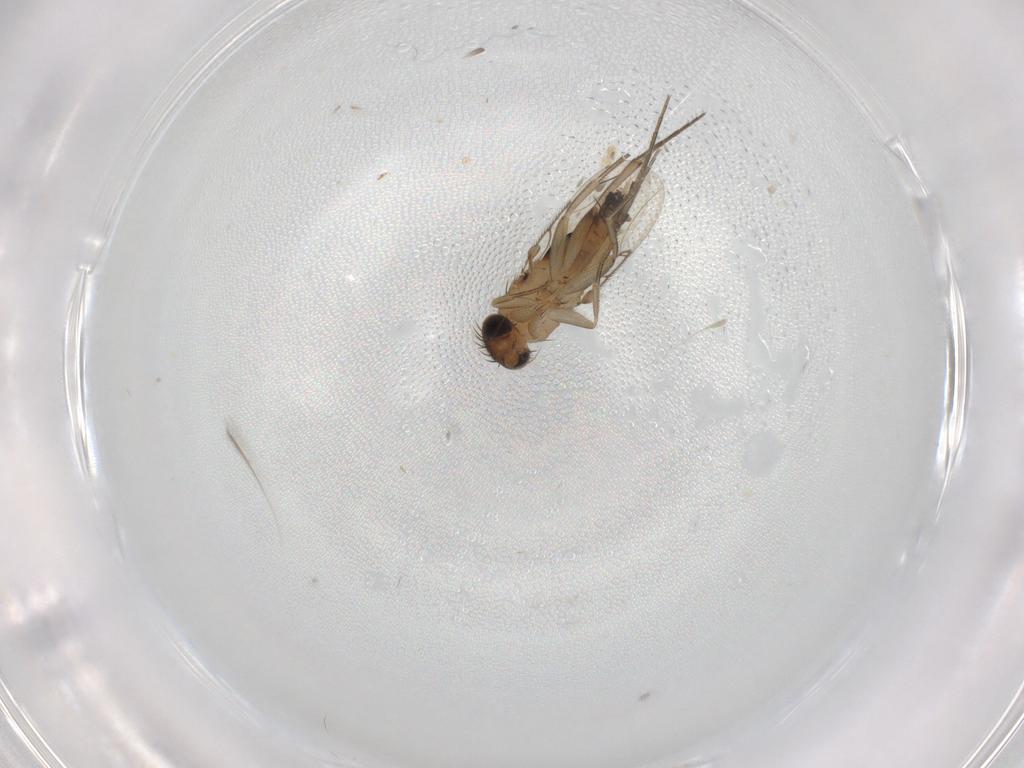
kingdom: Animalia
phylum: Arthropoda
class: Insecta
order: Diptera
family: Phoridae
